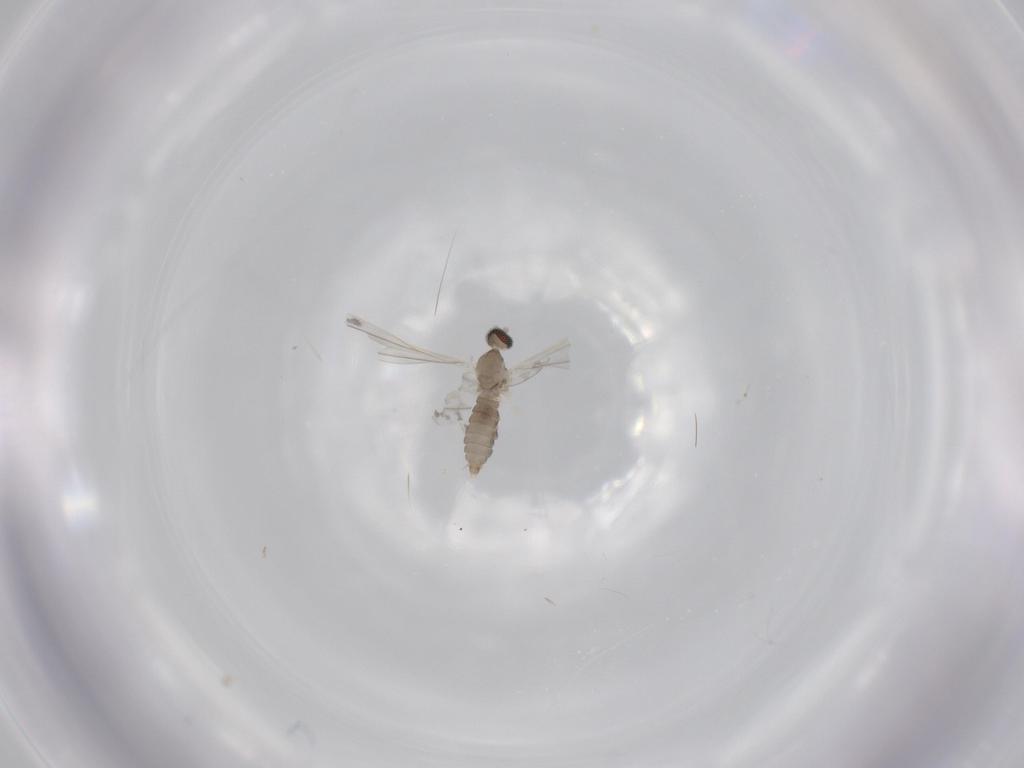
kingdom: Animalia
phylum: Arthropoda
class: Insecta
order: Diptera
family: Cecidomyiidae
